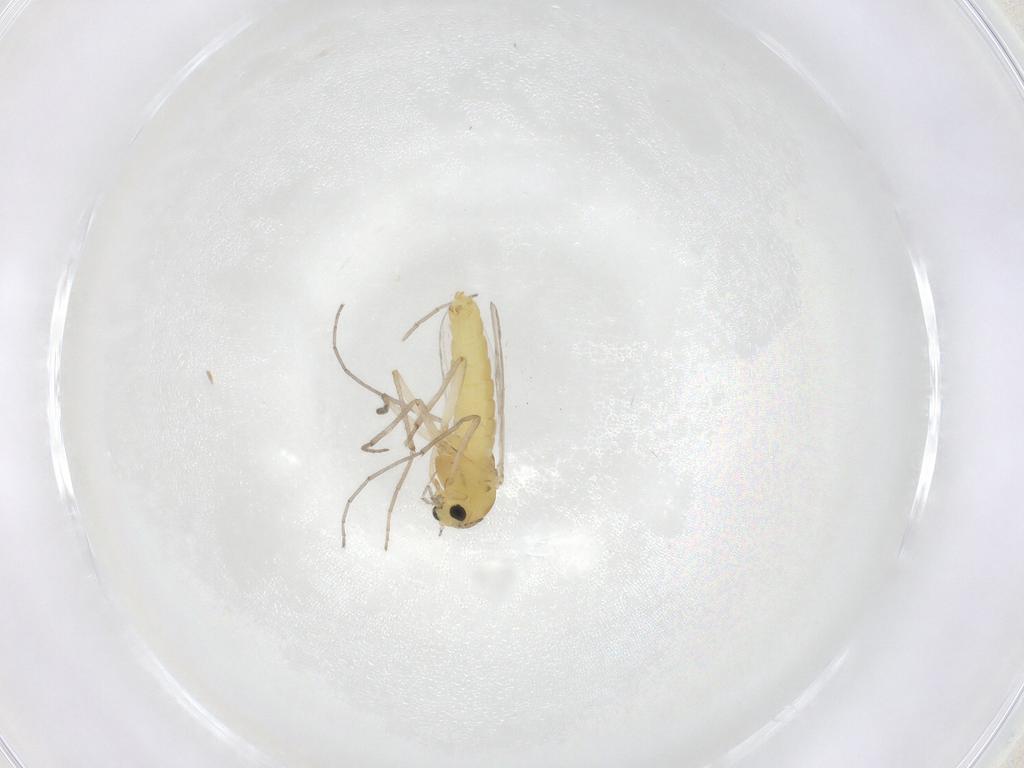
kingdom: Animalia
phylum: Arthropoda
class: Insecta
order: Diptera
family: Chironomidae
